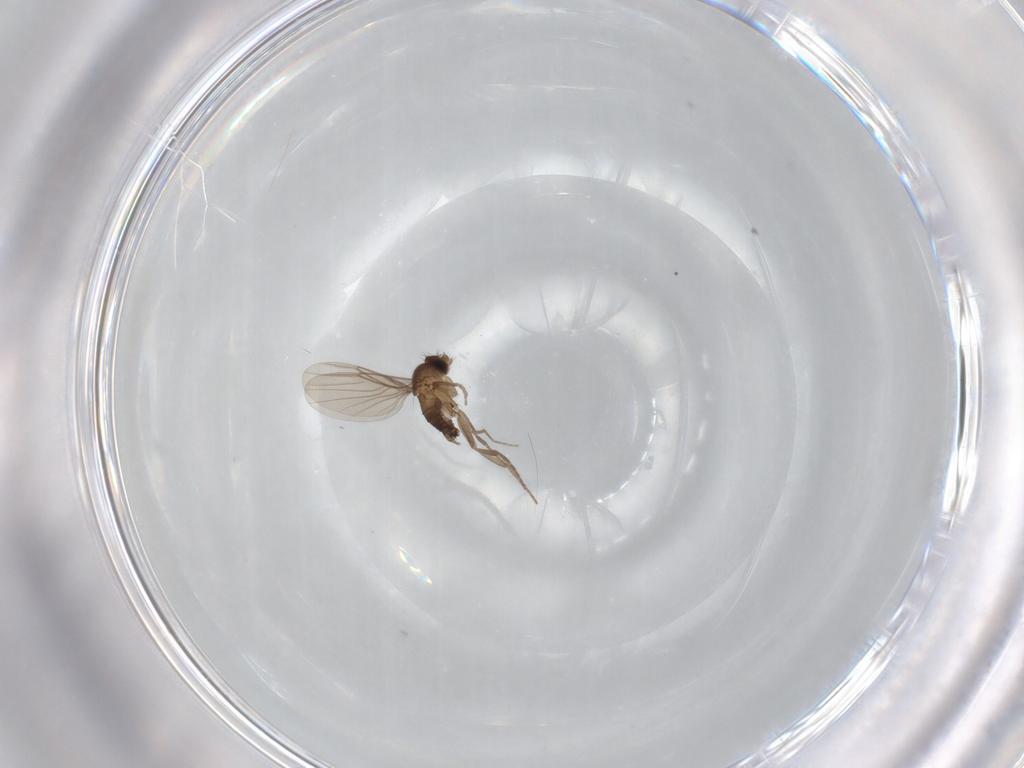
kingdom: Animalia
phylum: Arthropoda
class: Insecta
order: Diptera
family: Phoridae
